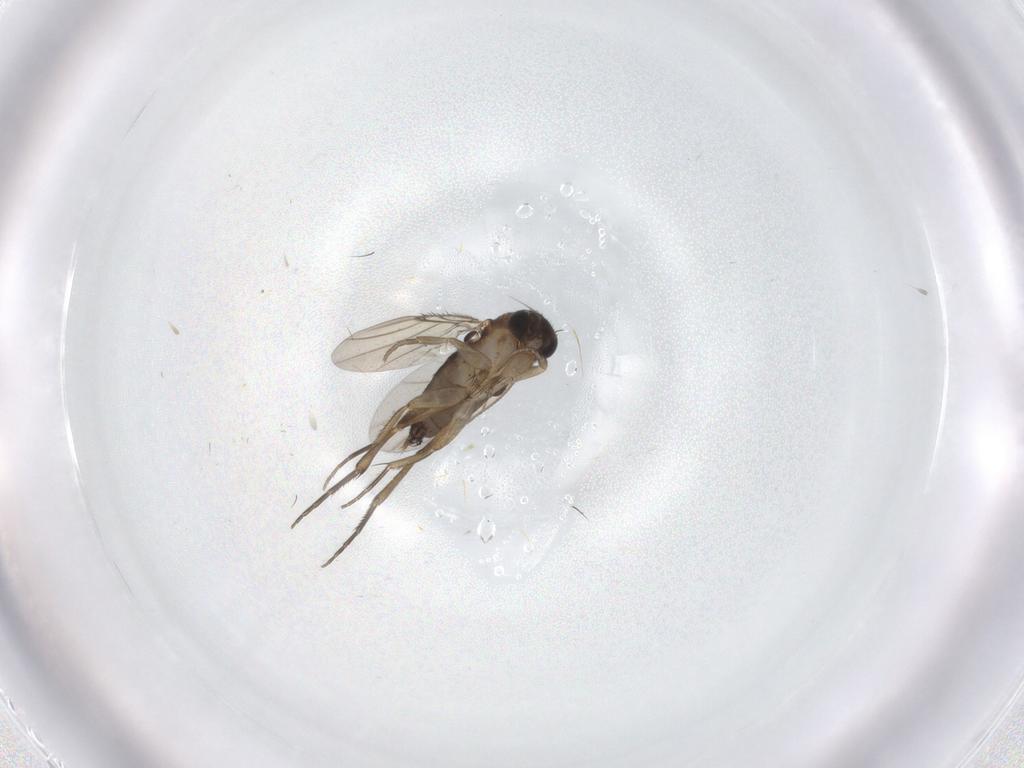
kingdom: Animalia
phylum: Arthropoda
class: Insecta
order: Diptera
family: Phoridae
